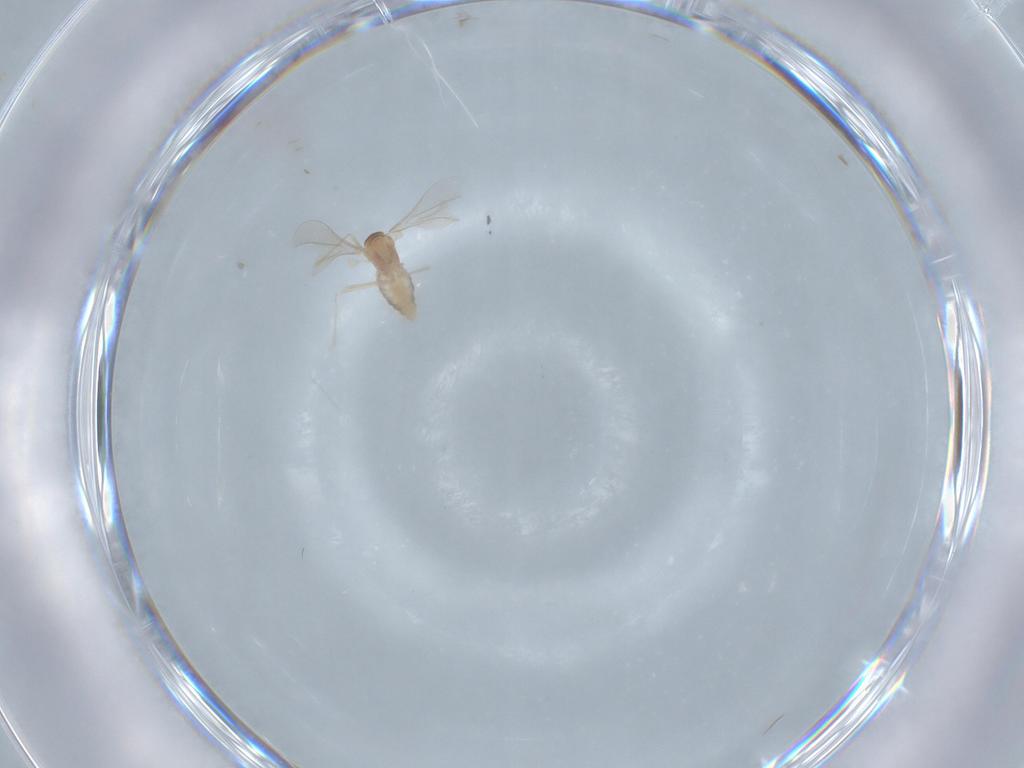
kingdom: Animalia
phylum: Arthropoda
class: Insecta
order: Diptera
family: Cecidomyiidae
